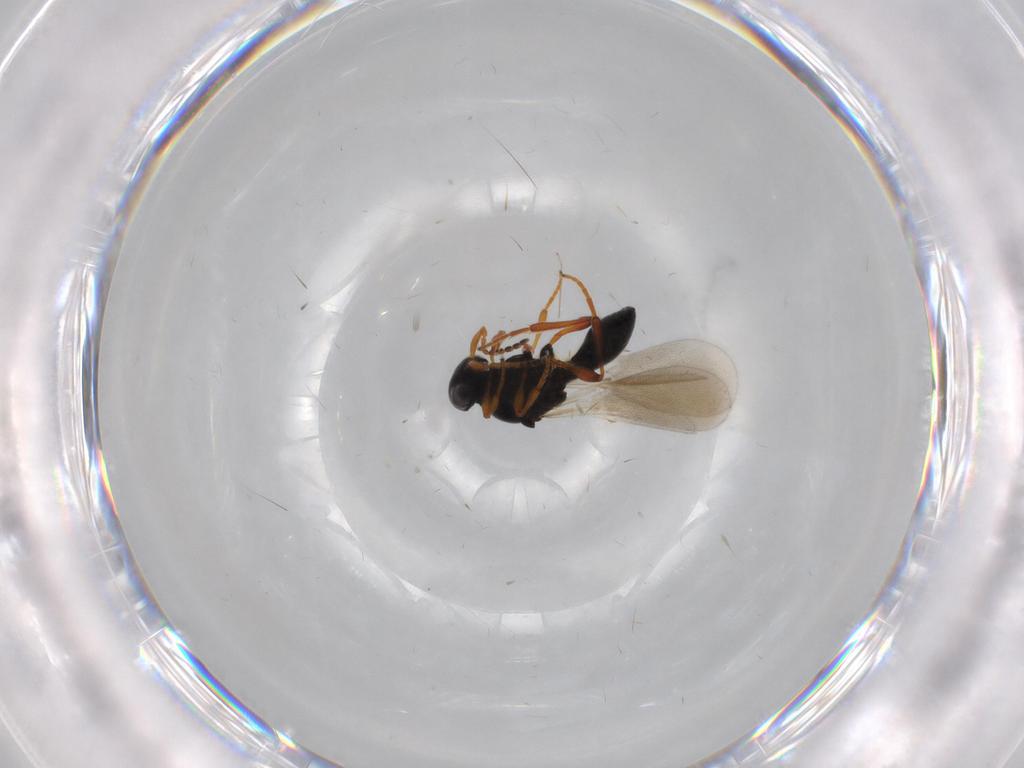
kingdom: Animalia
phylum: Arthropoda
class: Insecta
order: Hymenoptera
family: Platygastridae
